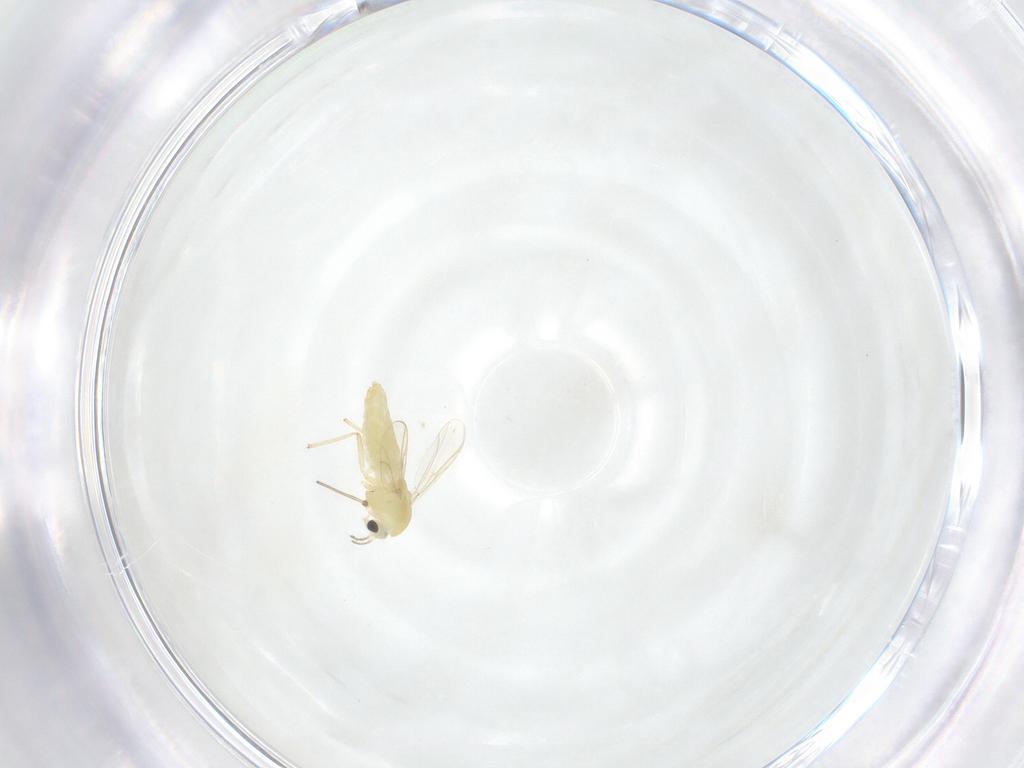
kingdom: Animalia
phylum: Arthropoda
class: Insecta
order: Diptera
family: Chironomidae
